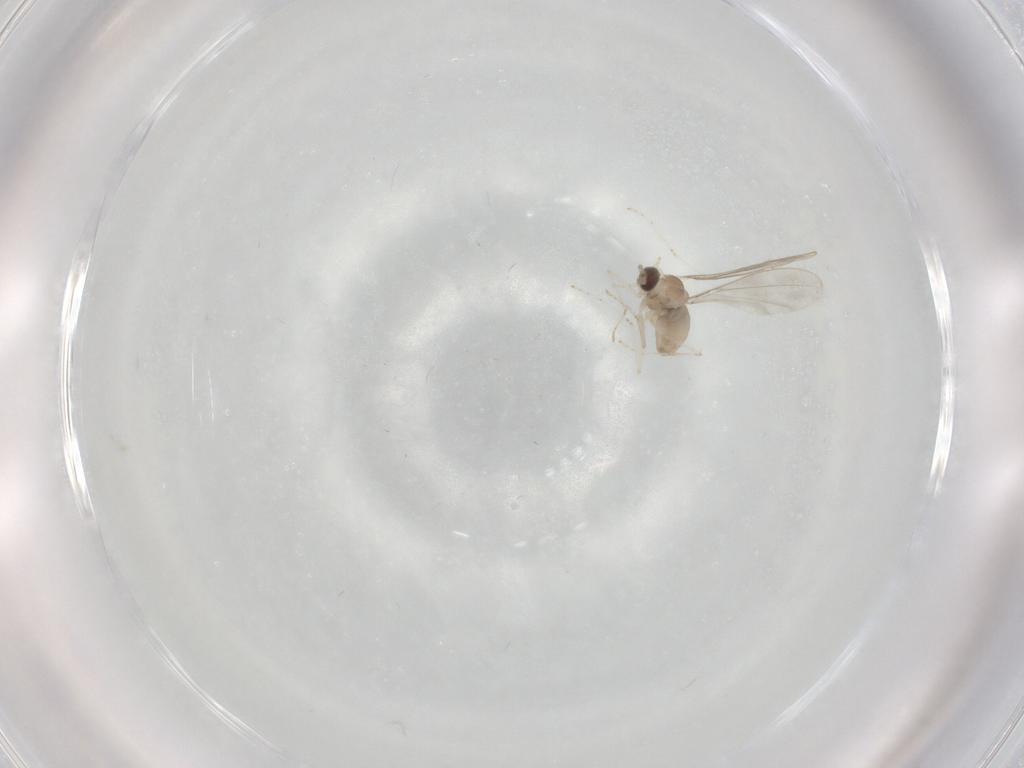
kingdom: Animalia
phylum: Arthropoda
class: Insecta
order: Diptera
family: Cecidomyiidae
